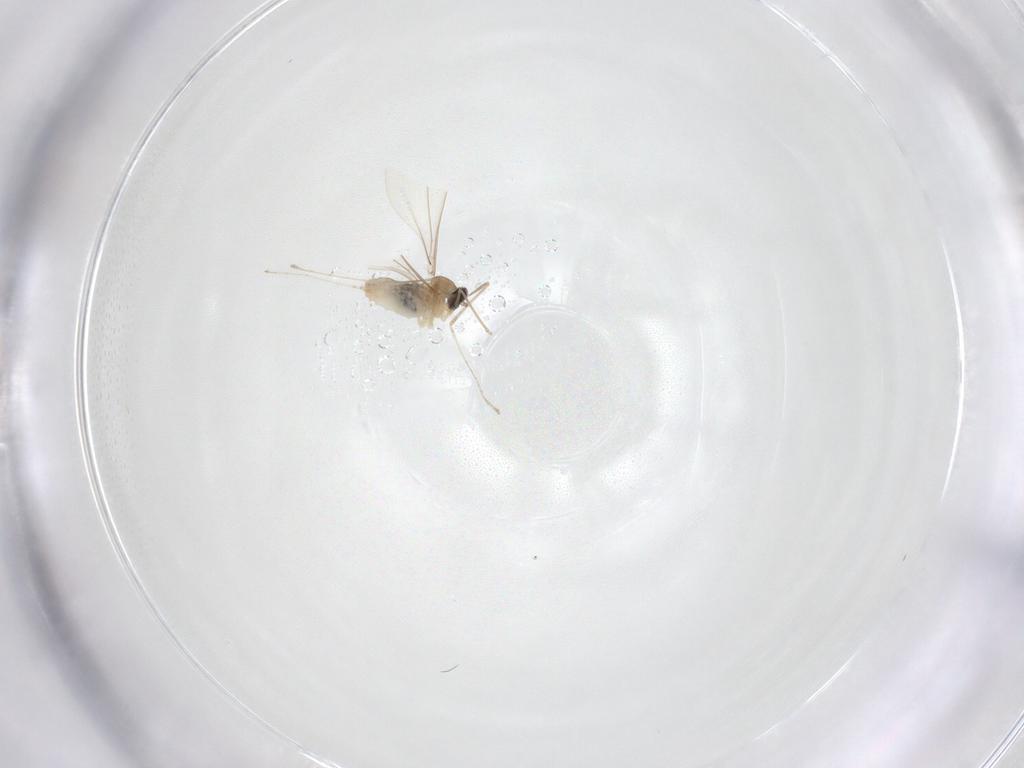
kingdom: Animalia
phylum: Arthropoda
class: Insecta
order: Diptera
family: Cecidomyiidae
